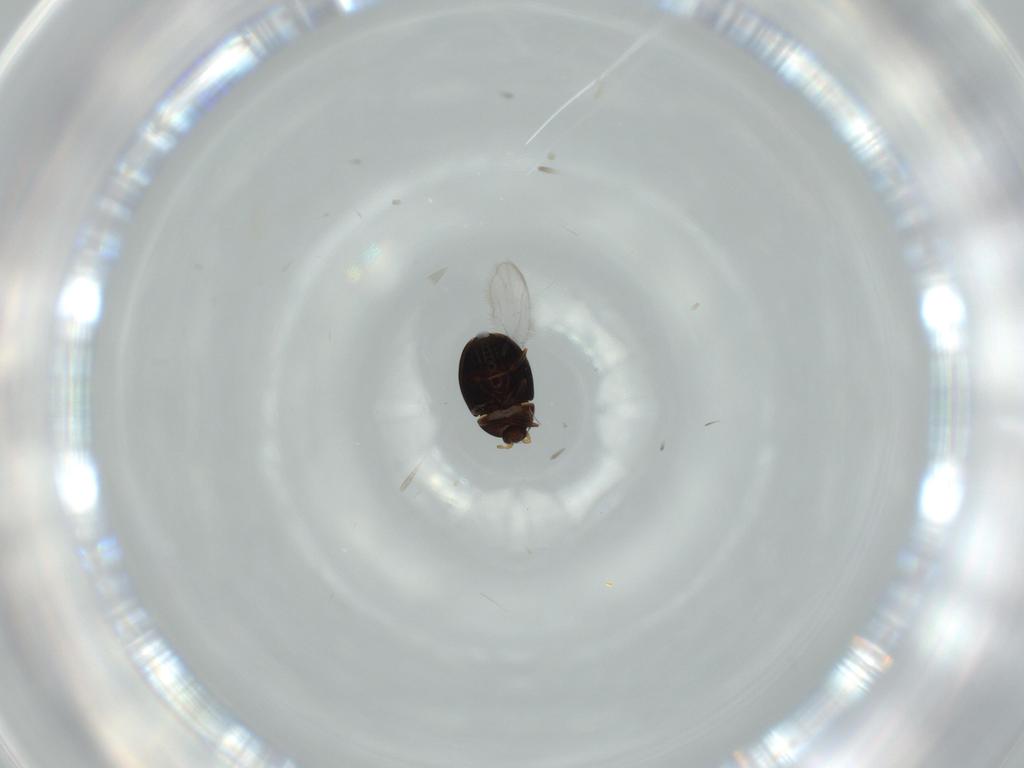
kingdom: Animalia
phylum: Arthropoda
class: Insecta
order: Coleoptera
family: Corylophidae
